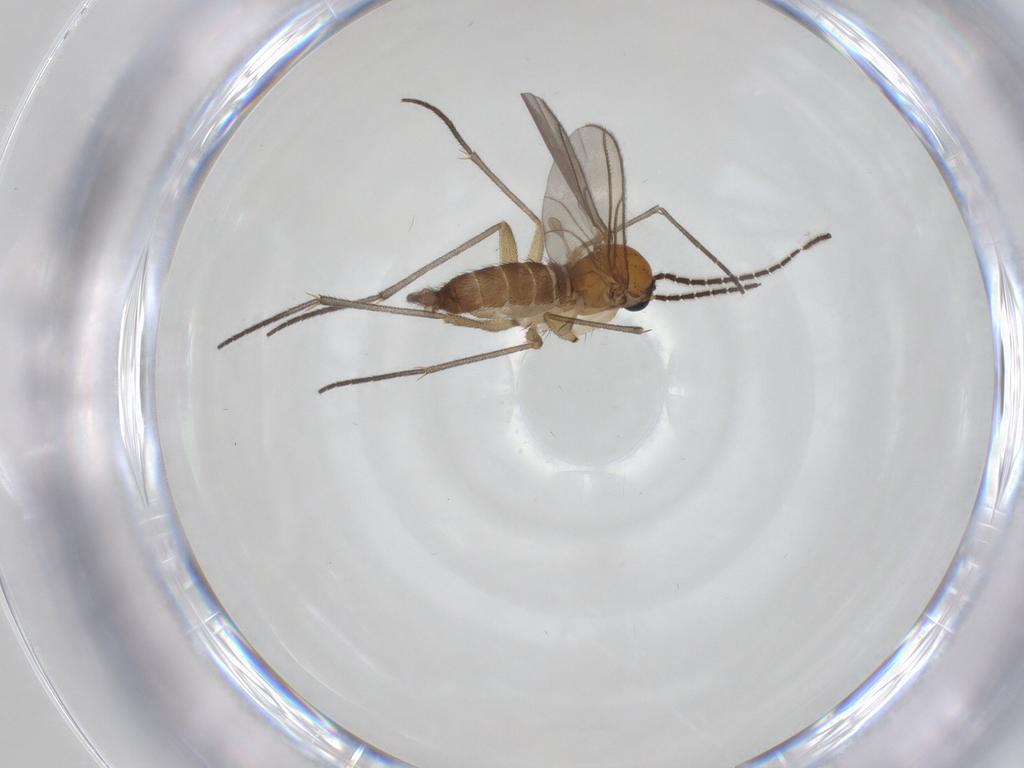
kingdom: Animalia
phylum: Arthropoda
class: Insecta
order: Diptera
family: Sciaridae
